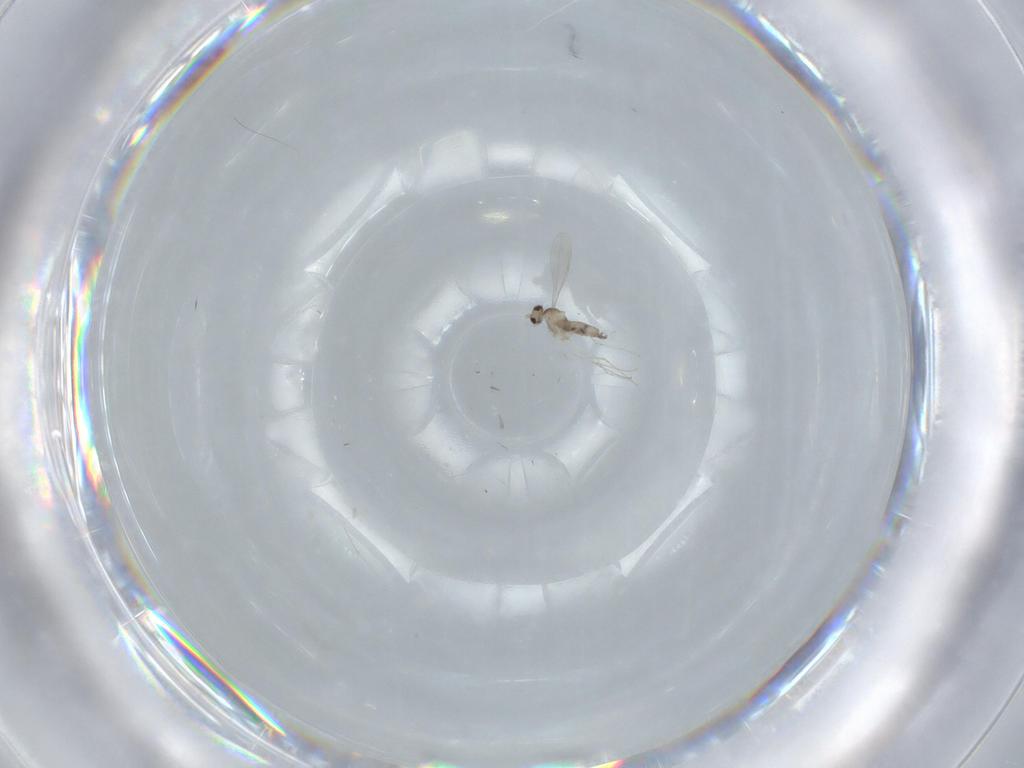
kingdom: Animalia
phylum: Arthropoda
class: Insecta
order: Diptera
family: Cecidomyiidae
